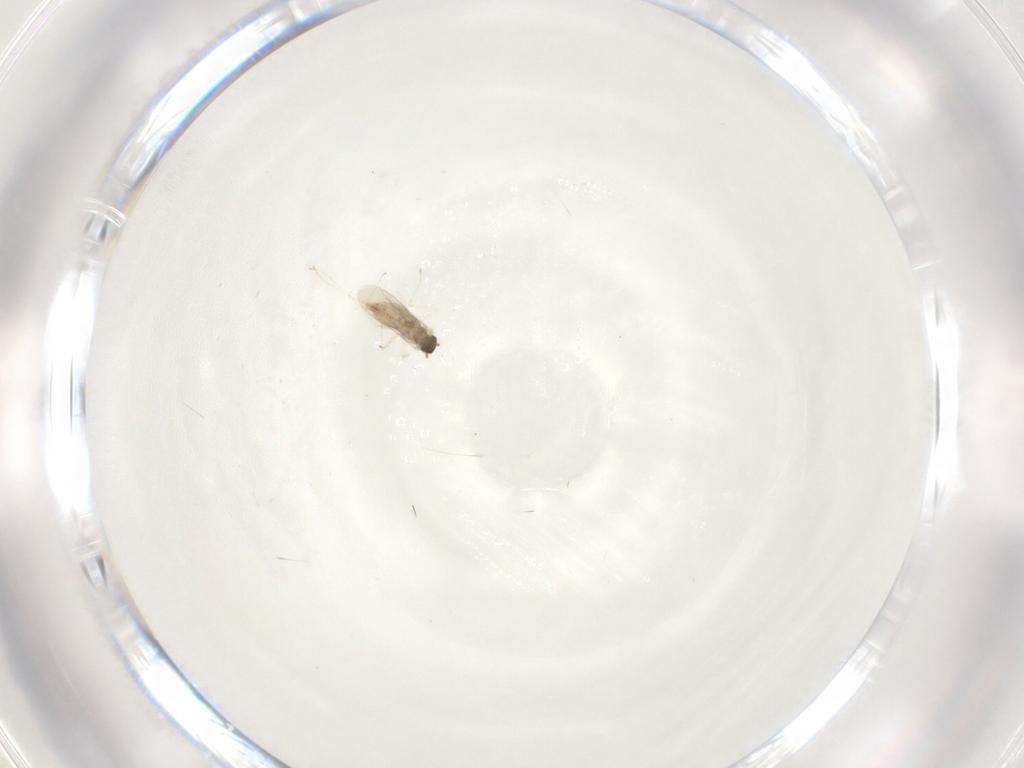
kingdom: Animalia
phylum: Arthropoda
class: Insecta
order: Diptera
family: Cecidomyiidae
